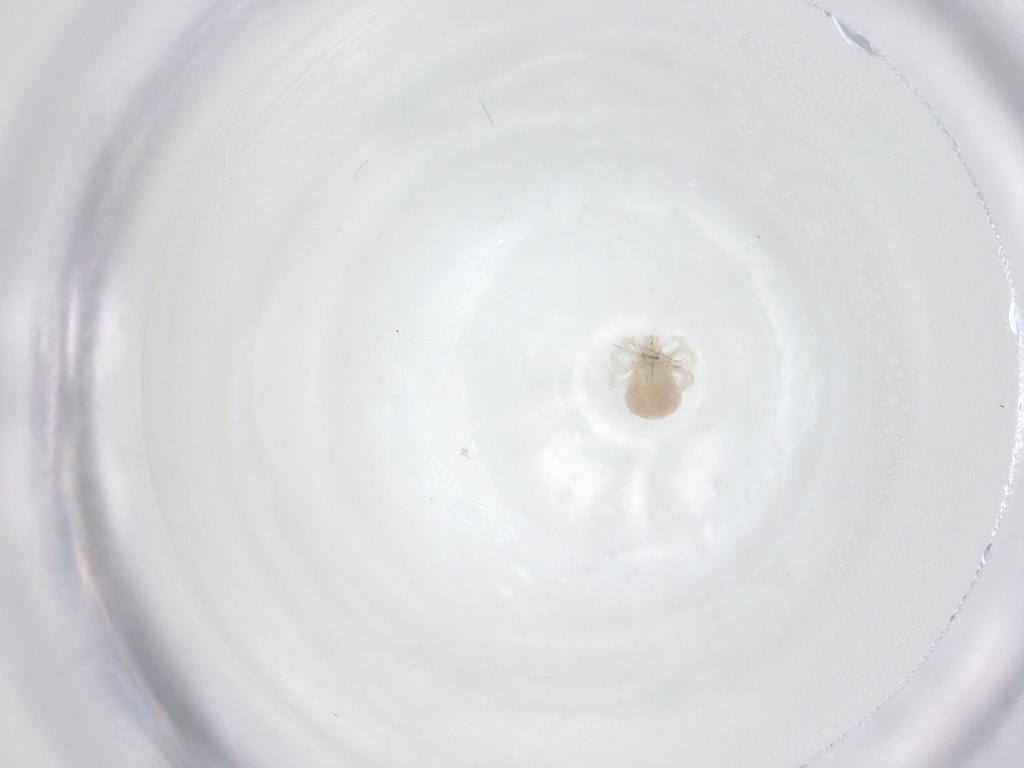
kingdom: Animalia
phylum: Arthropoda
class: Arachnida
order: Trombidiformes
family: Anystidae
